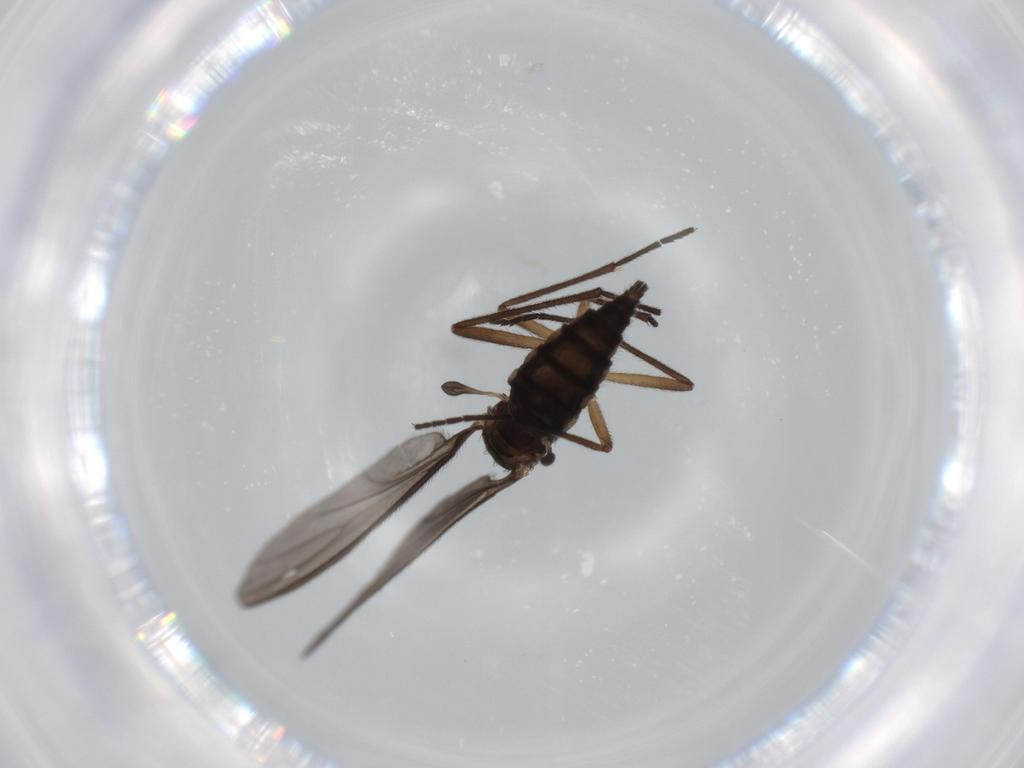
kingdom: Animalia
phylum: Arthropoda
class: Insecta
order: Diptera
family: Sciaridae
